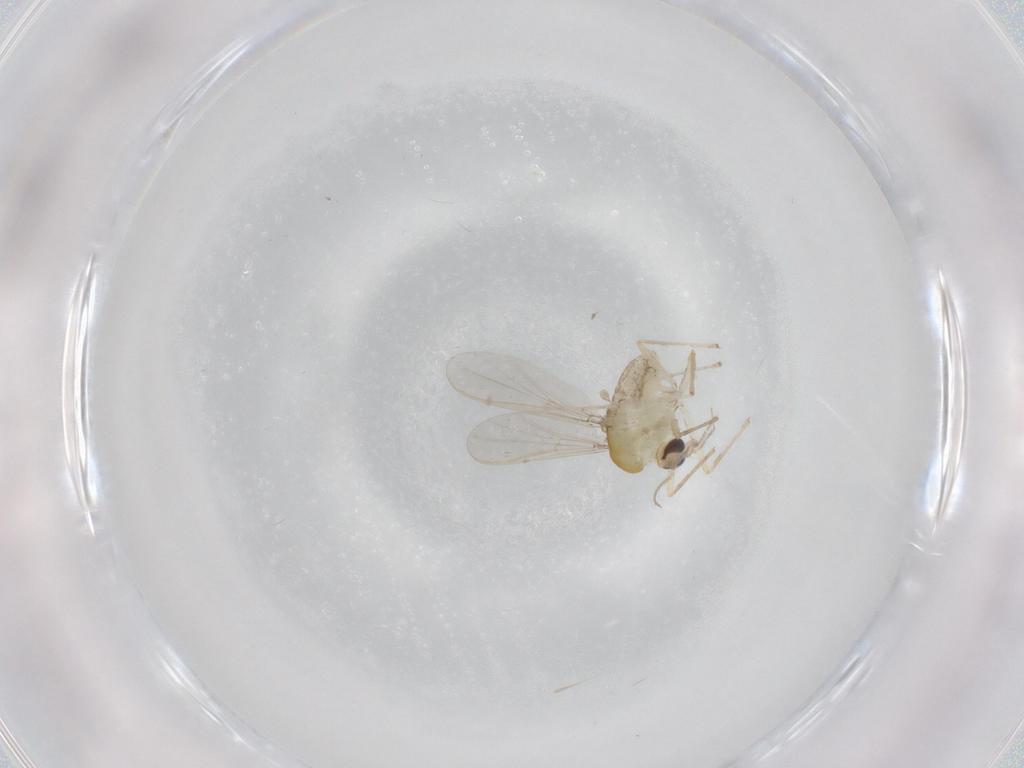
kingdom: Animalia
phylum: Arthropoda
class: Insecta
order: Diptera
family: Chironomidae
